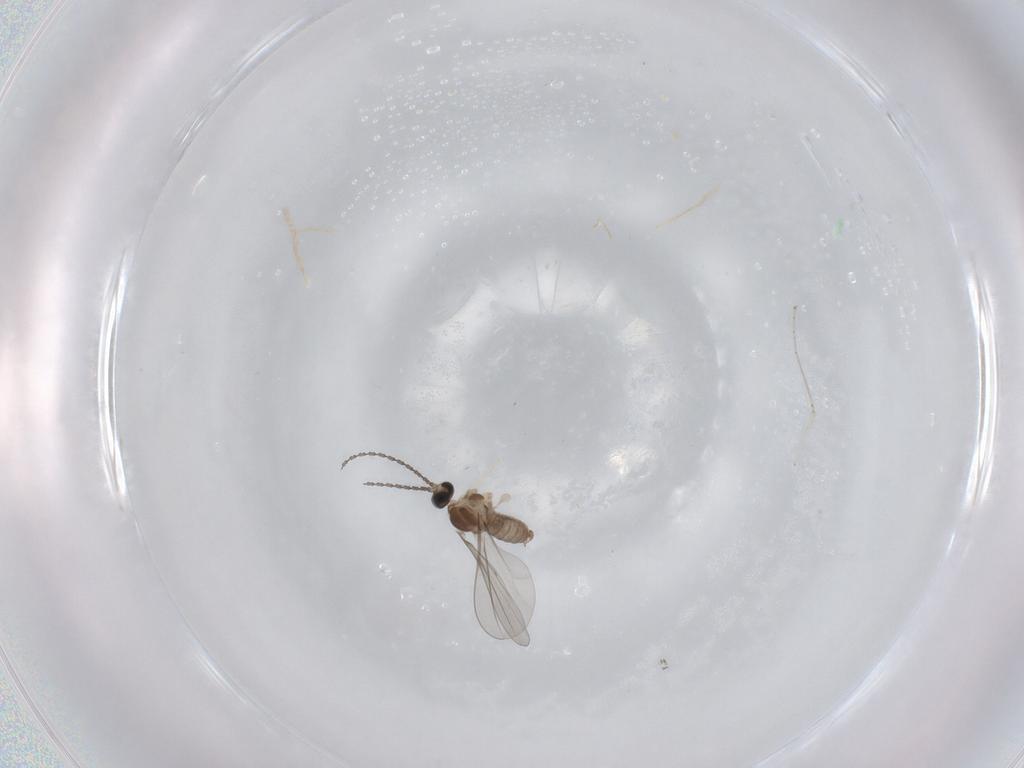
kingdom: Animalia
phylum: Arthropoda
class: Insecta
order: Diptera
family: Cecidomyiidae
